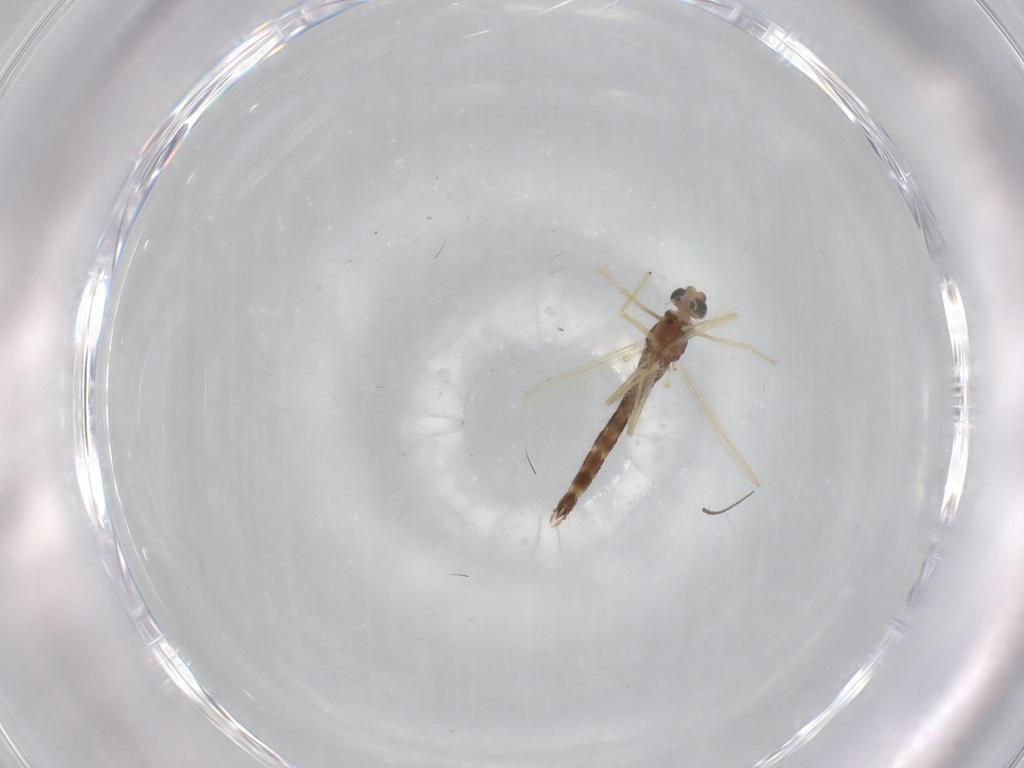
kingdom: Animalia
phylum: Arthropoda
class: Insecta
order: Diptera
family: Chironomidae
